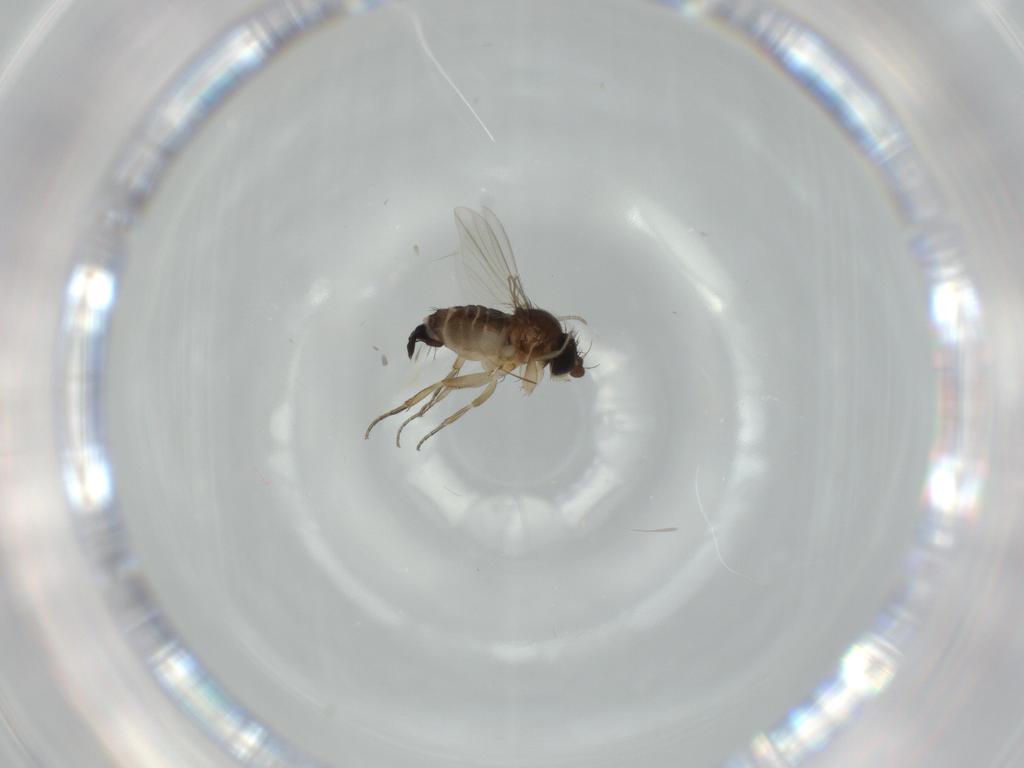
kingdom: Animalia
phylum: Arthropoda
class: Insecta
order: Diptera
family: Phoridae
